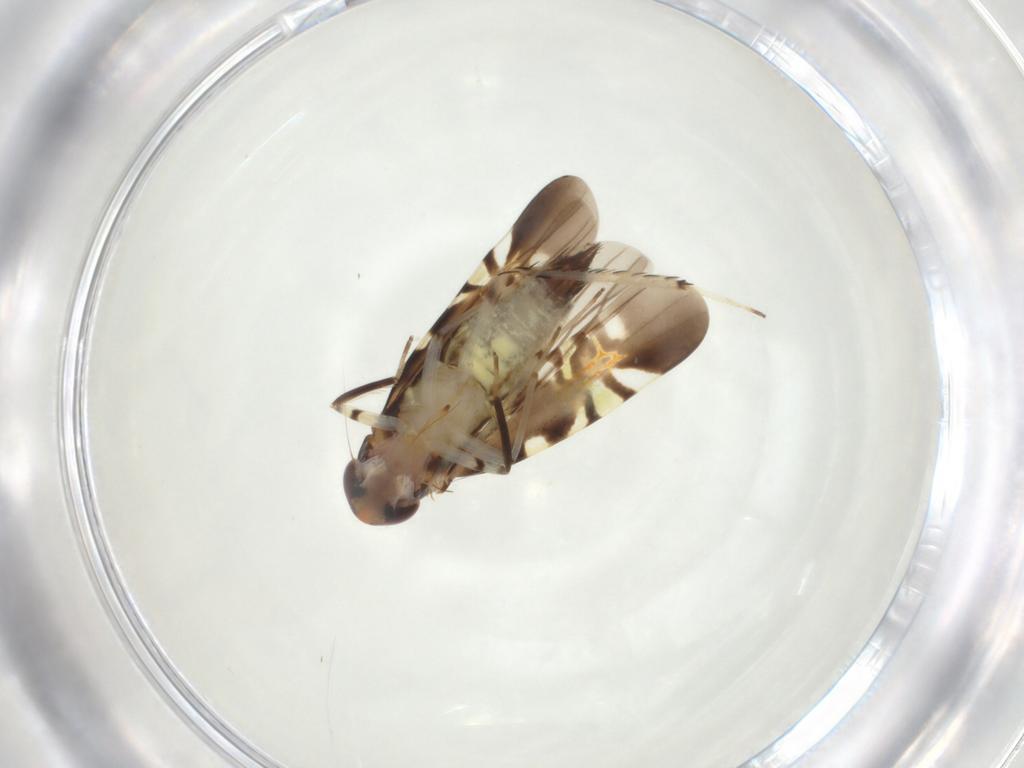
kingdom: Animalia
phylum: Arthropoda
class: Insecta
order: Hemiptera
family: Cicadellidae
